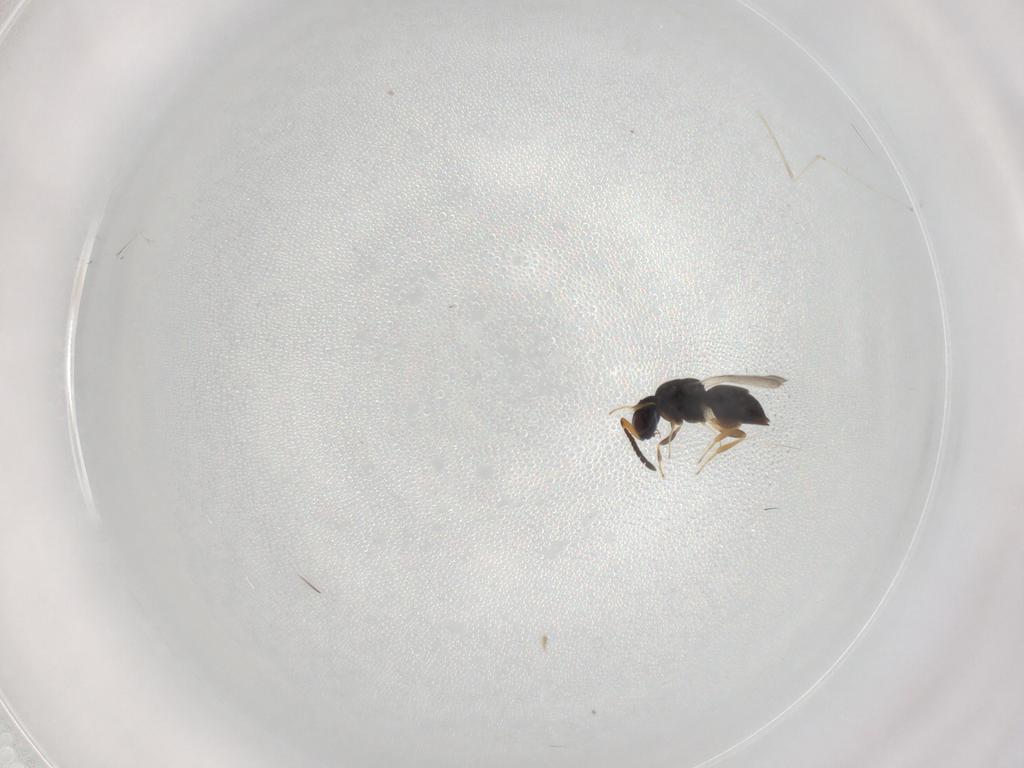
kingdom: Animalia
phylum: Arthropoda
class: Insecta
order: Hymenoptera
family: Ceraphronidae
